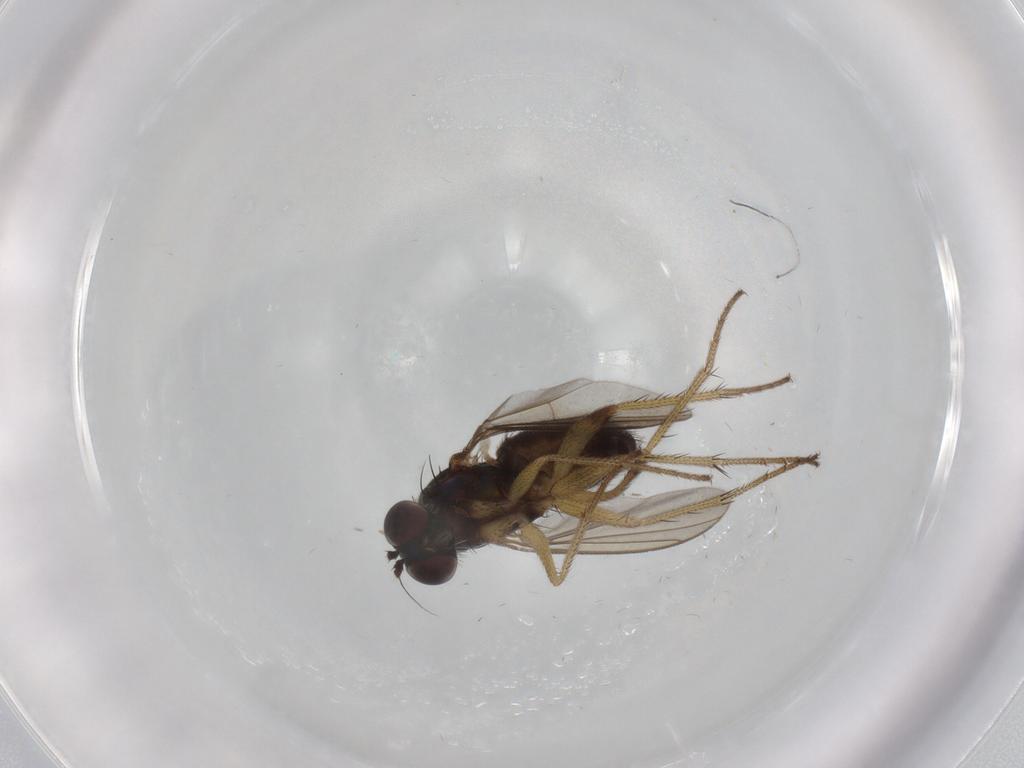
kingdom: Animalia
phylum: Arthropoda
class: Insecta
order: Diptera
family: Dolichopodidae
